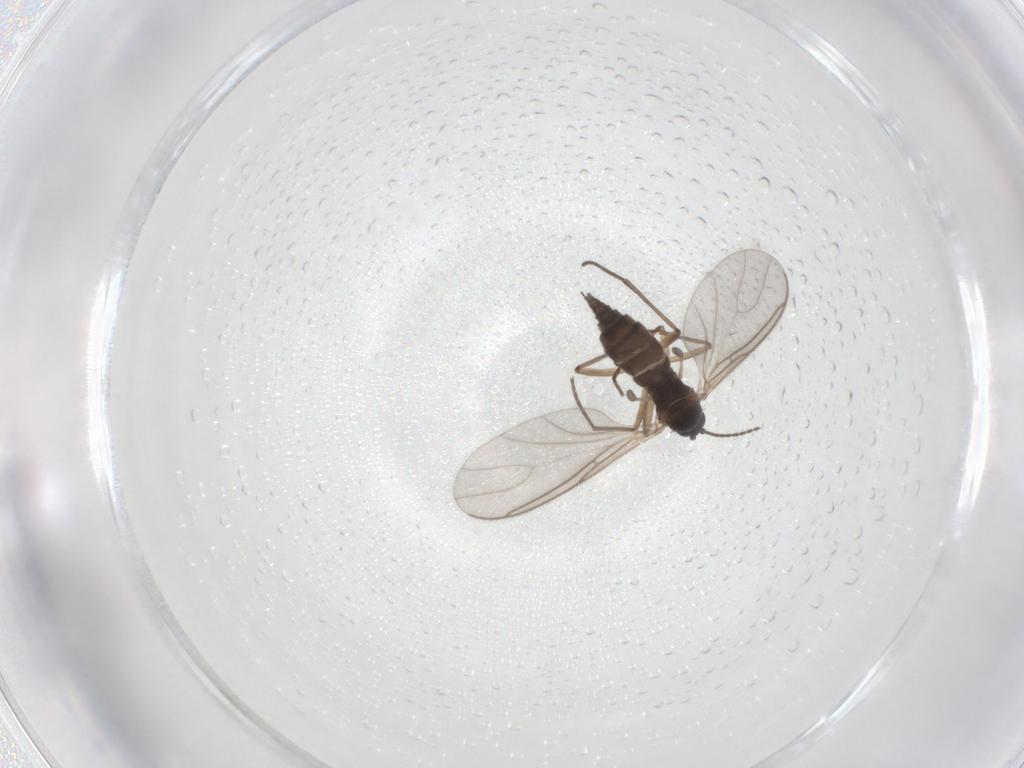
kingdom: Animalia
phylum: Arthropoda
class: Insecta
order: Diptera
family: Sciaridae
